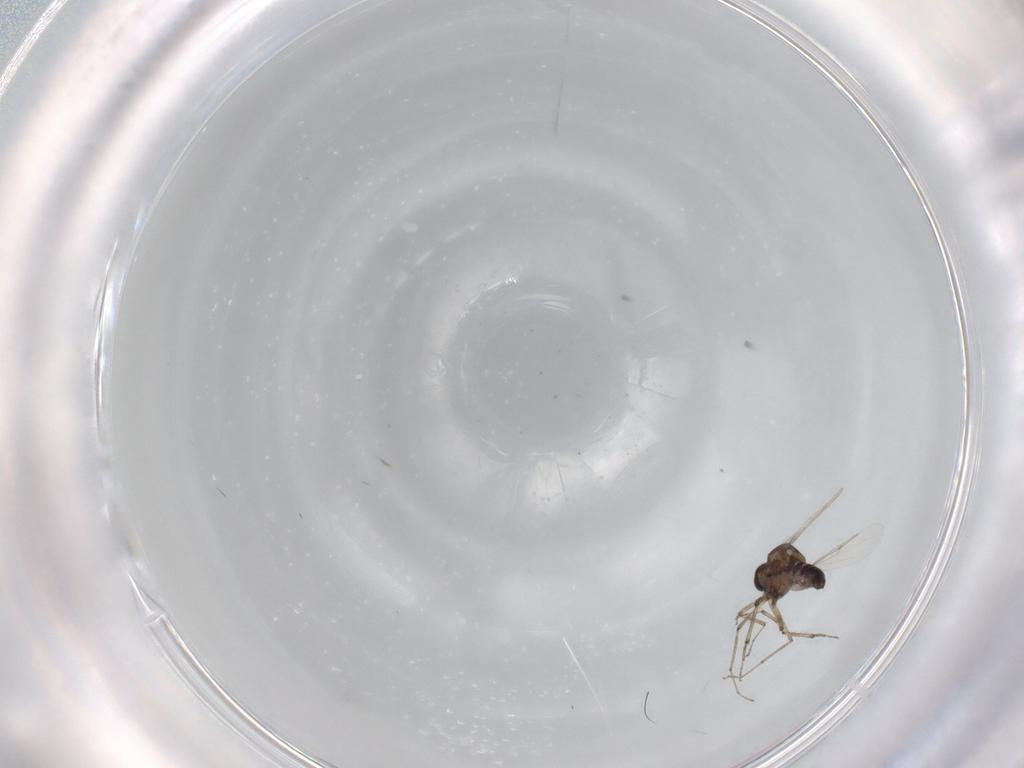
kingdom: Animalia
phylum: Arthropoda
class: Insecta
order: Diptera
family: Ceratopogonidae
